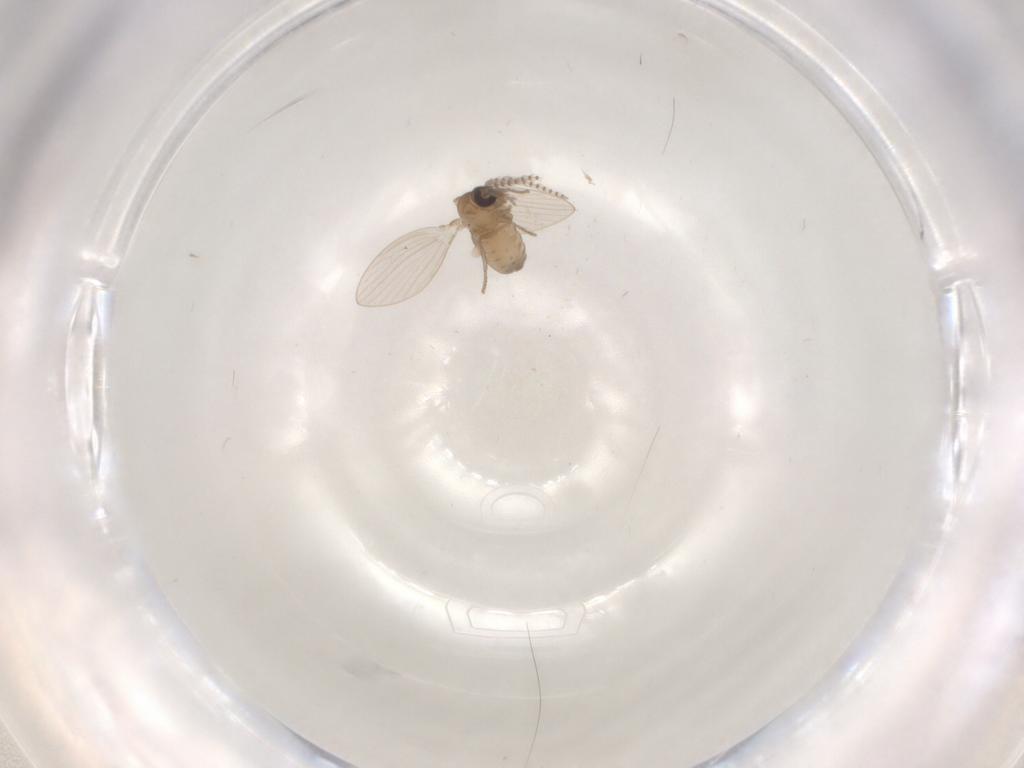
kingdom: Animalia
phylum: Arthropoda
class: Insecta
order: Diptera
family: Cecidomyiidae
